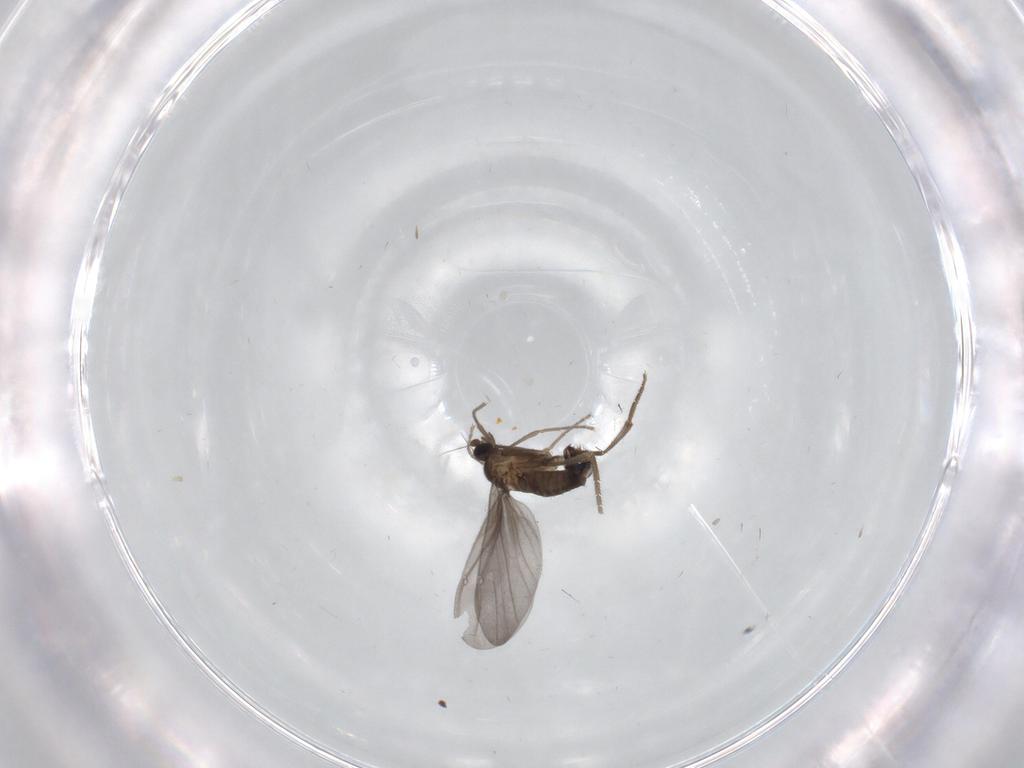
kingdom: Animalia
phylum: Arthropoda
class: Insecta
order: Diptera
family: Phoridae
